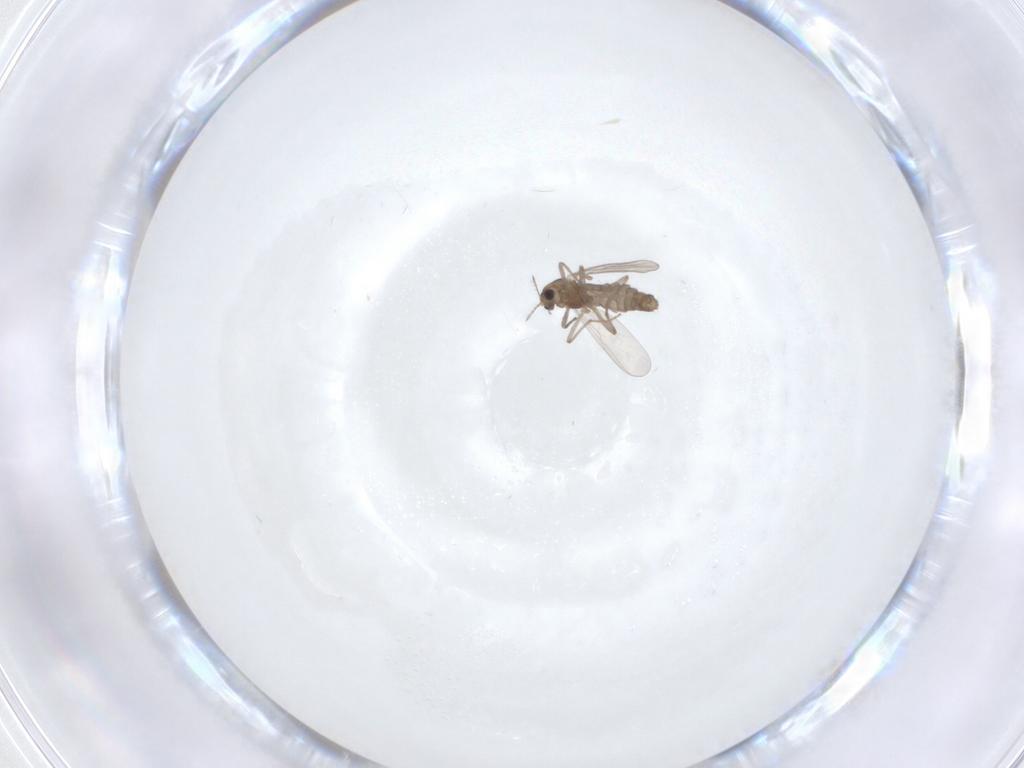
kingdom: Animalia
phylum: Arthropoda
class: Insecta
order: Diptera
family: Chironomidae
